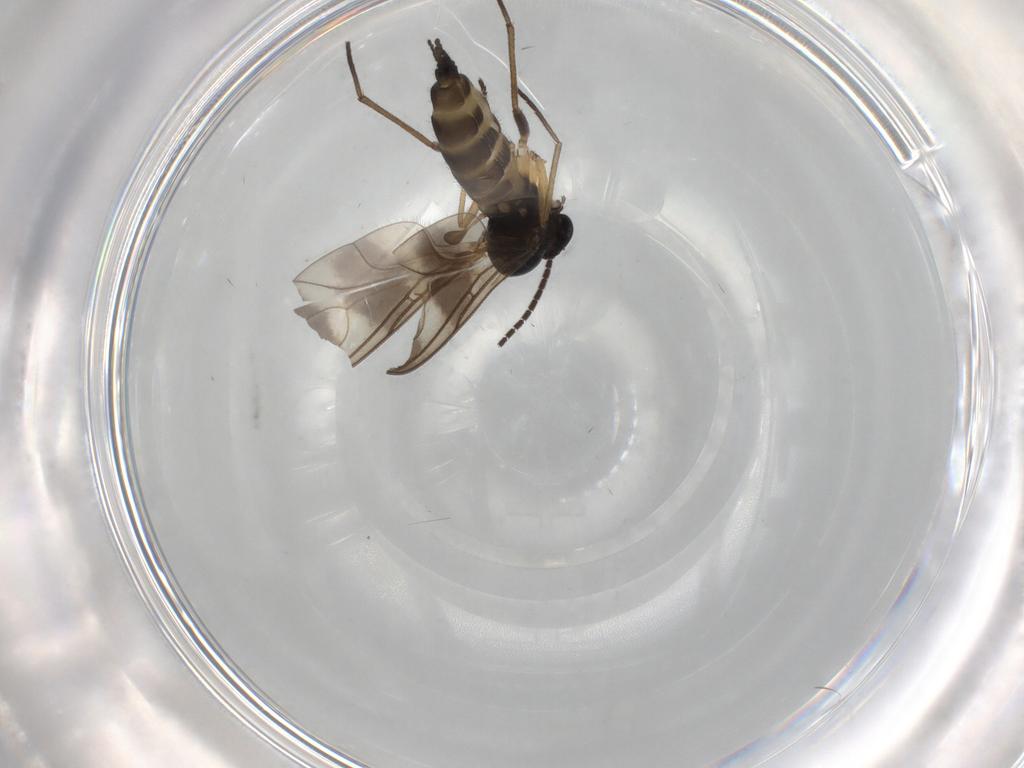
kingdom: Animalia
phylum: Arthropoda
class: Insecta
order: Diptera
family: Sciaridae
